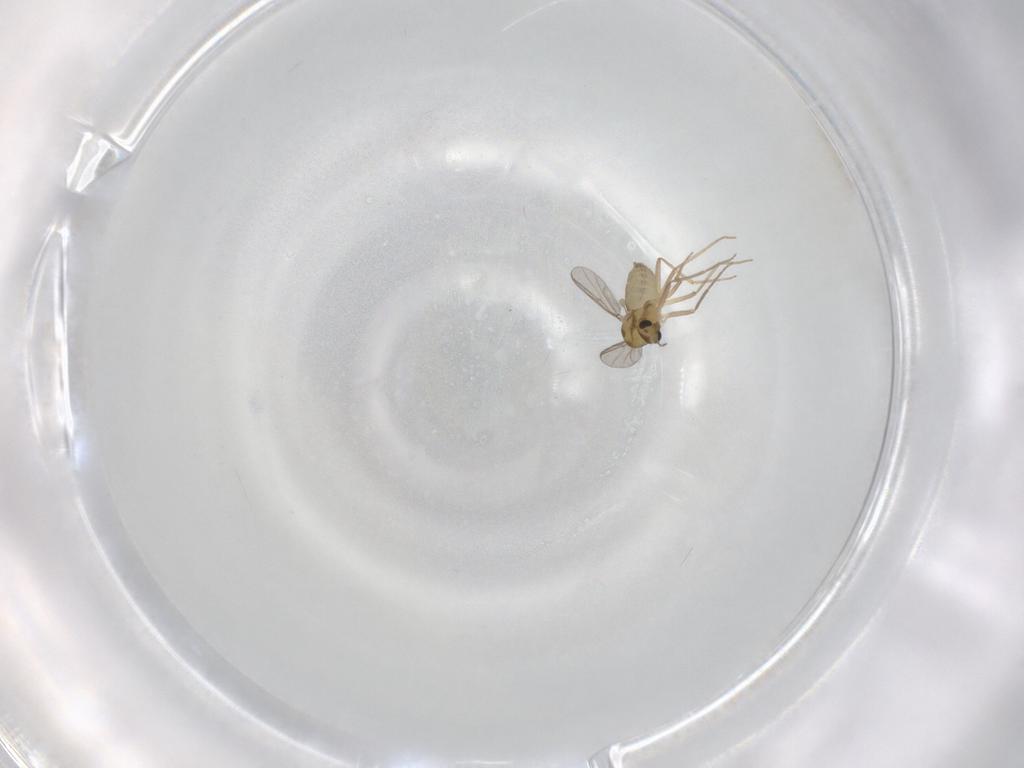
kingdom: Animalia
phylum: Arthropoda
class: Insecta
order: Diptera
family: Chironomidae
